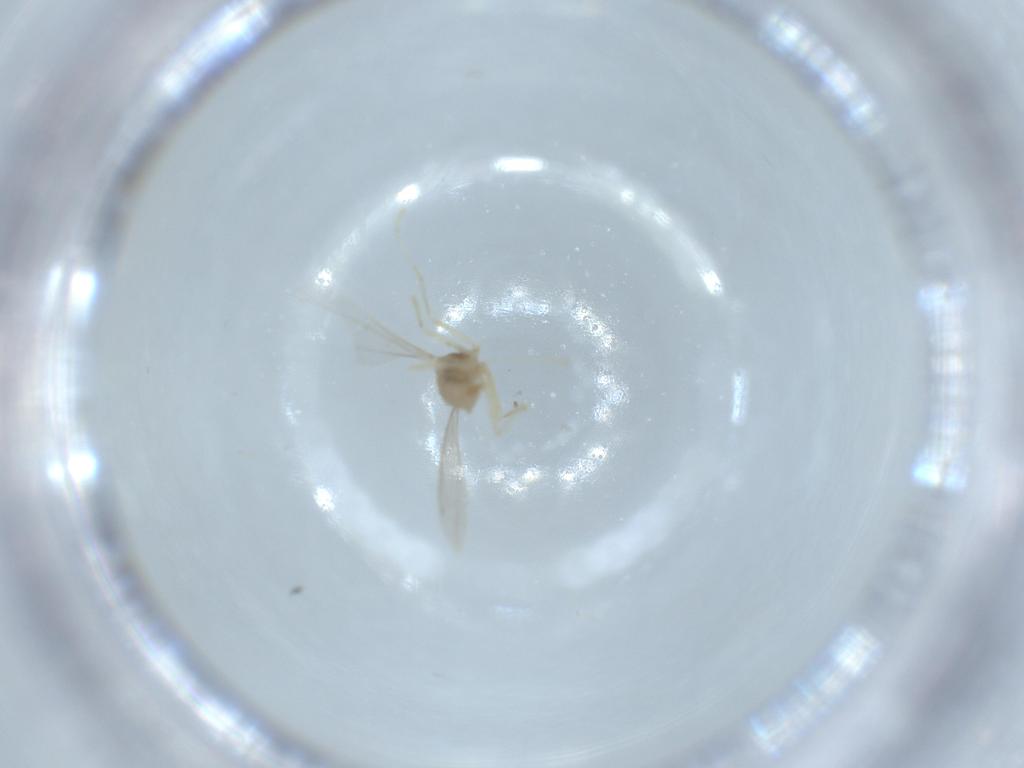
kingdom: Animalia
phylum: Arthropoda
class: Insecta
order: Diptera
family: Cecidomyiidae
